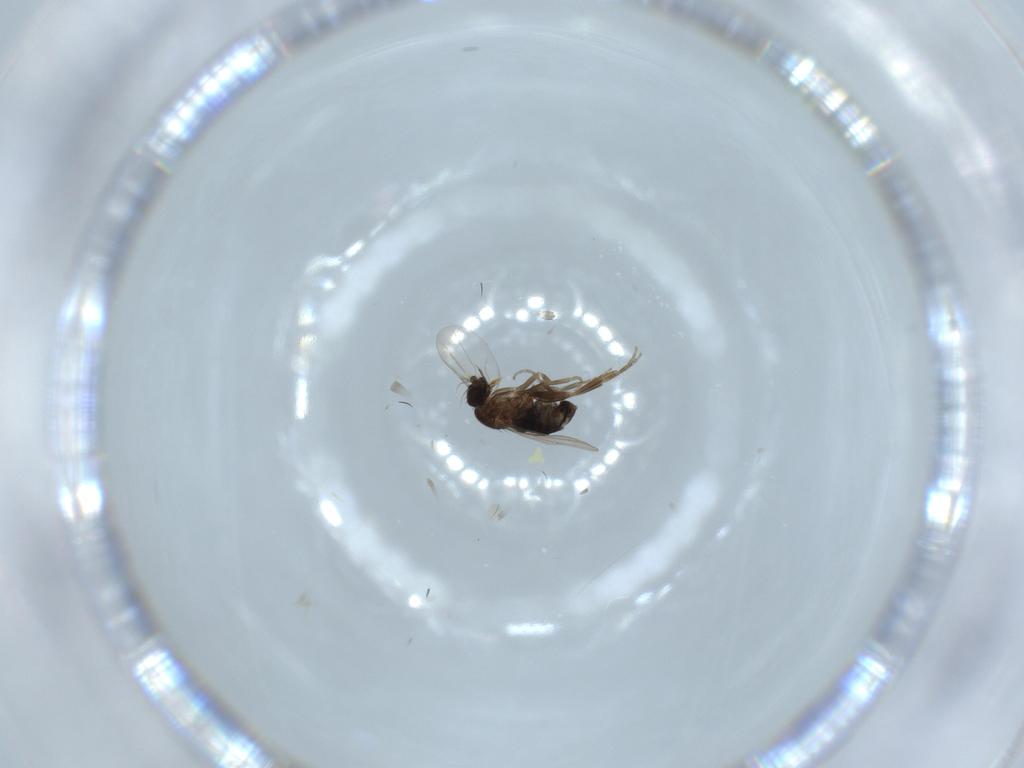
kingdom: Animalia
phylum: Arthropoda
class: Insecta
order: Diptera
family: Phoridae
